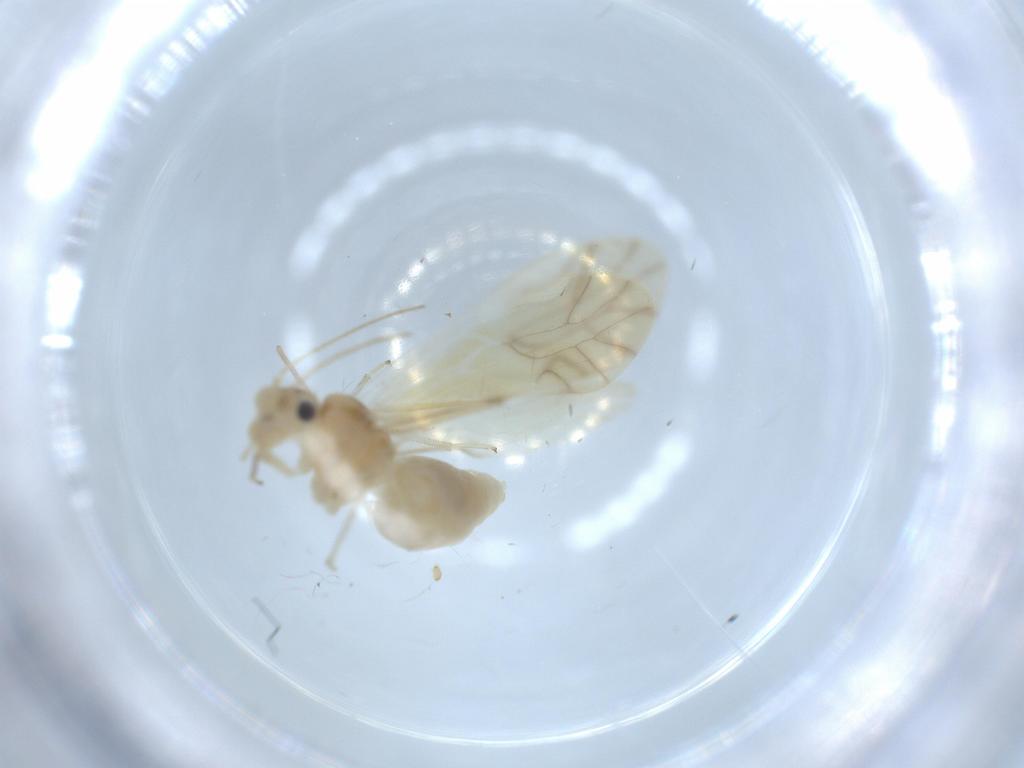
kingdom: Animalia
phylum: Arthropoda
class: Insecta
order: Psocodea
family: Caeciliusidae
